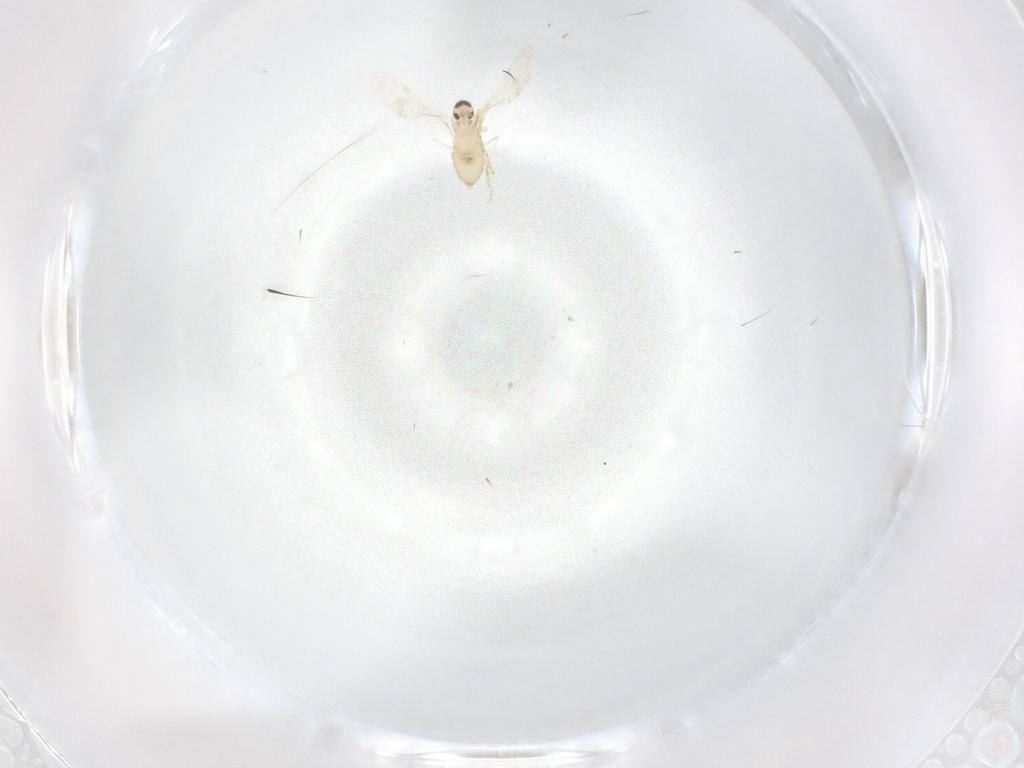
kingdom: Animalia
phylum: Arthropoda
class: Insecta
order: Diptera
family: Cecidomyiidae
